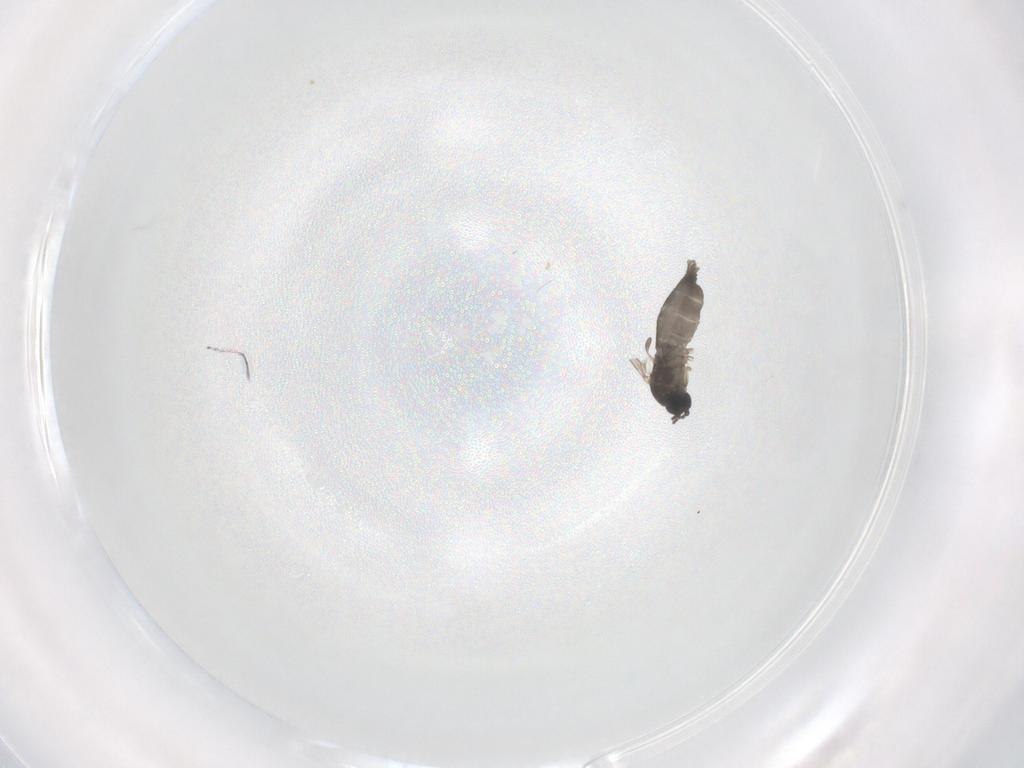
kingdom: Animalia
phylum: Arthropoda
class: Insecta
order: Diptera
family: Sciaridae
